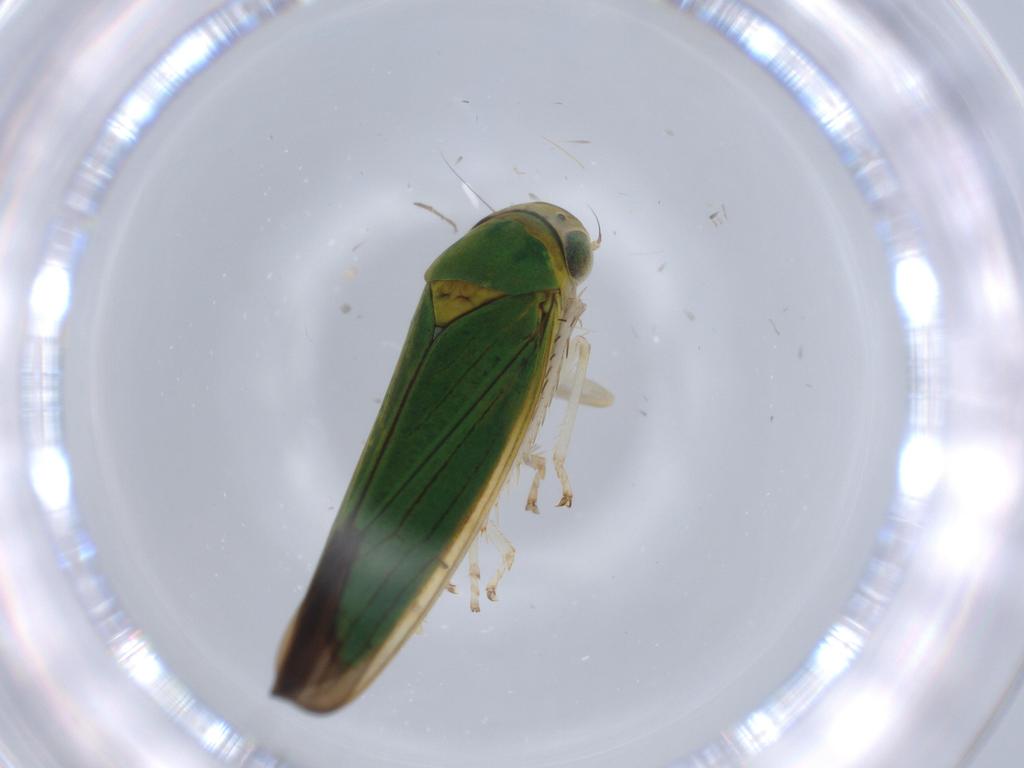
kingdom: Animalia
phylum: Arthropoda
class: Insecta
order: Hemiptera
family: Cicadellidae
